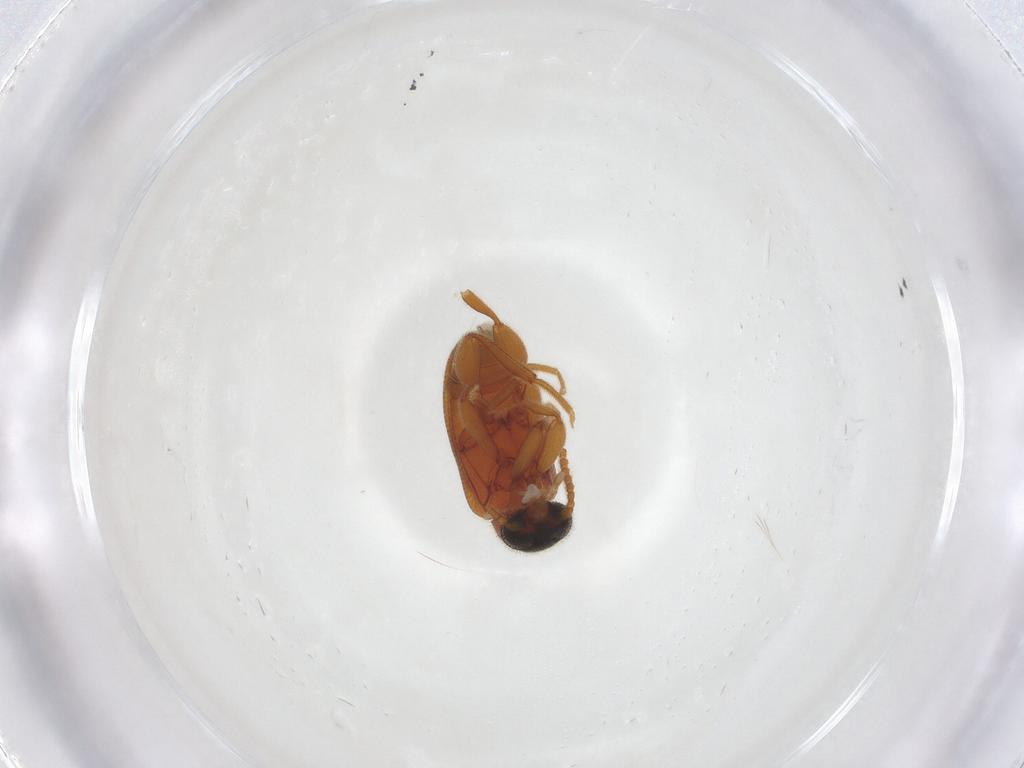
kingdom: Animalia
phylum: Arthropoda
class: Insecta
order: Coleoptera
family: Aderidae
